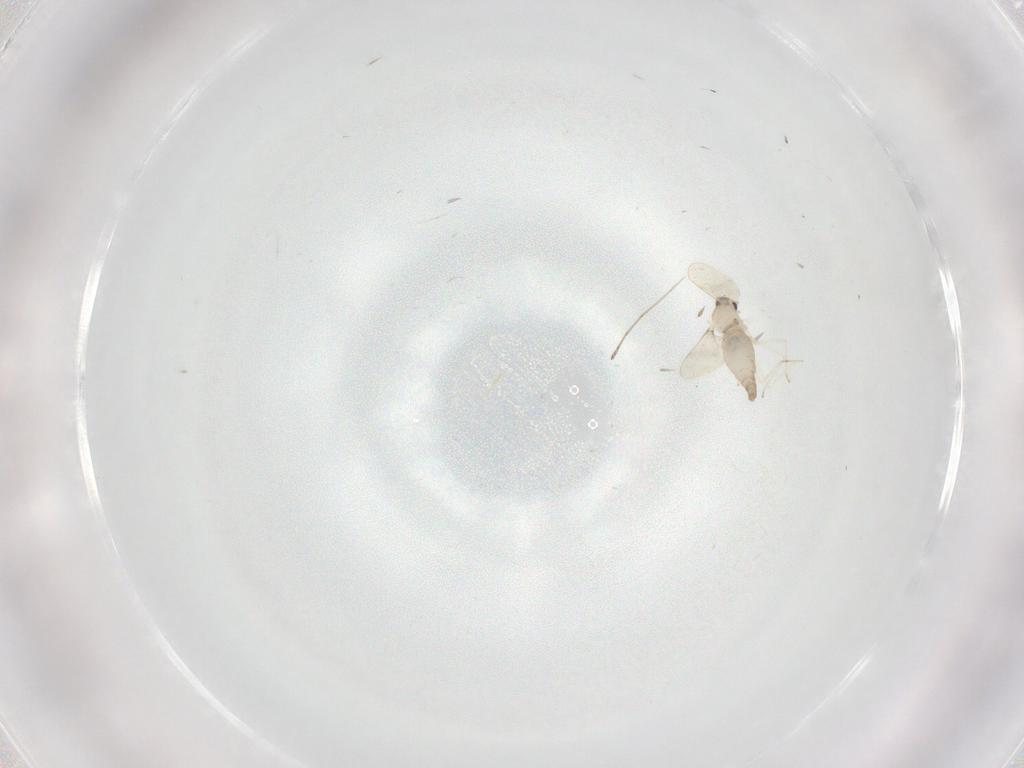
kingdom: Animalia
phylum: Arthropoda
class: Insecta
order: Diptera
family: Cecidomyiidae
